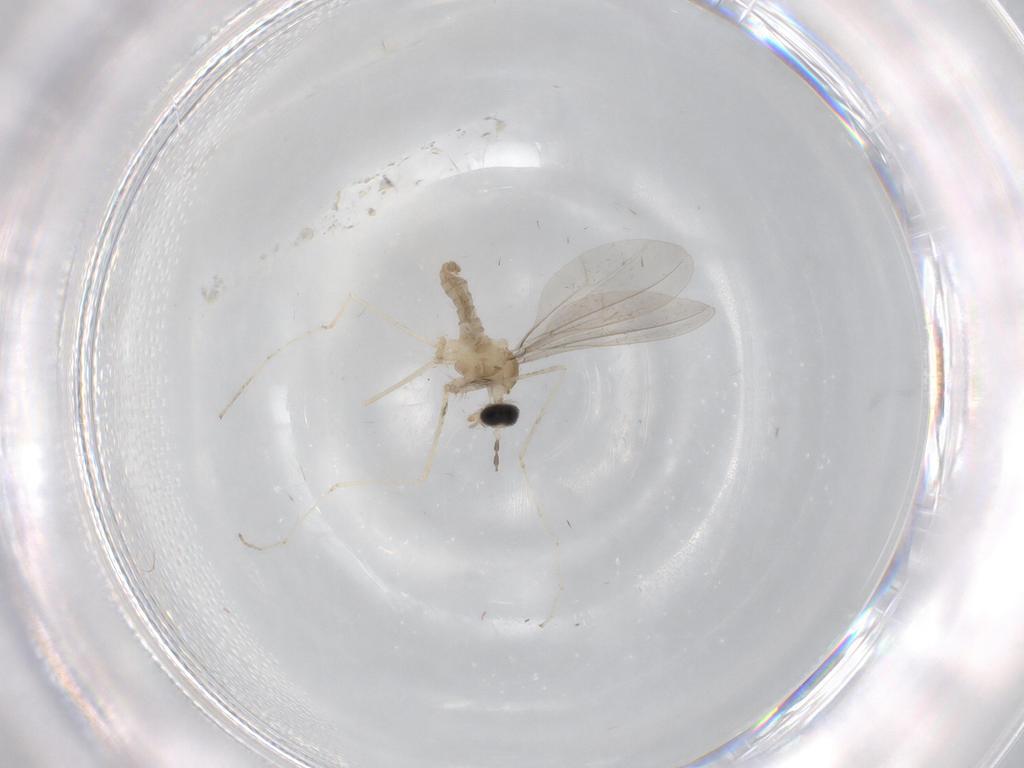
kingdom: Animalia
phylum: Arthropoda
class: Insecta
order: Diptera
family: Cecidomyiidae
